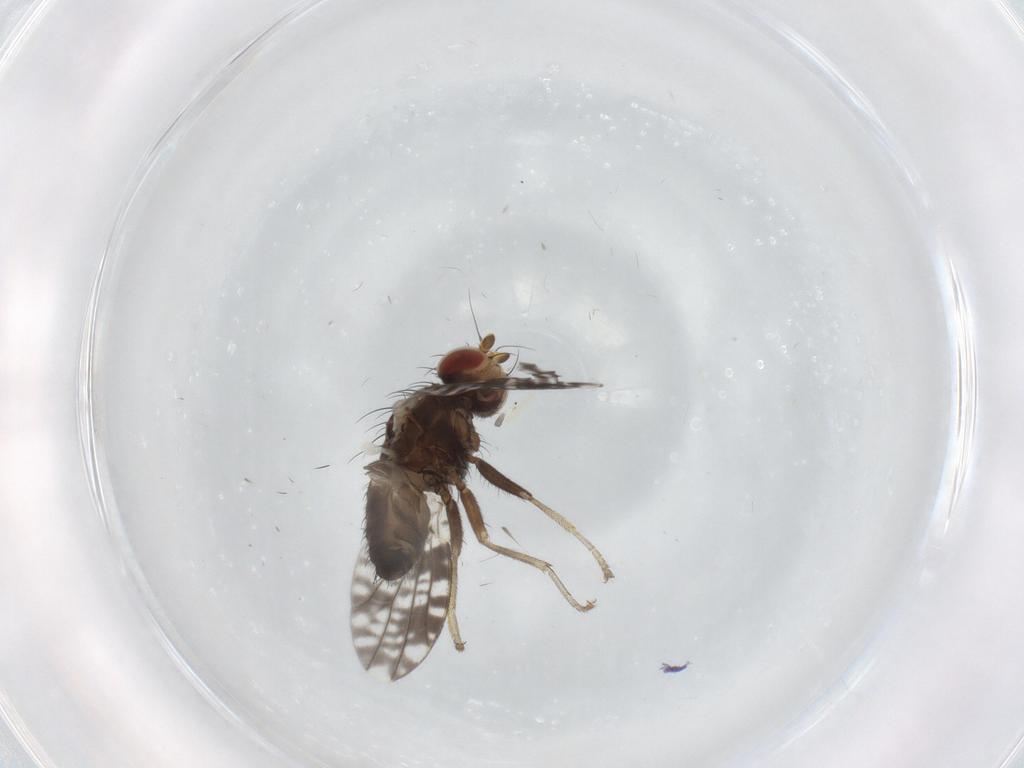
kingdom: Animalia
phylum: Arthropoda
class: Insecta
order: Diptera
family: Tephritidae
